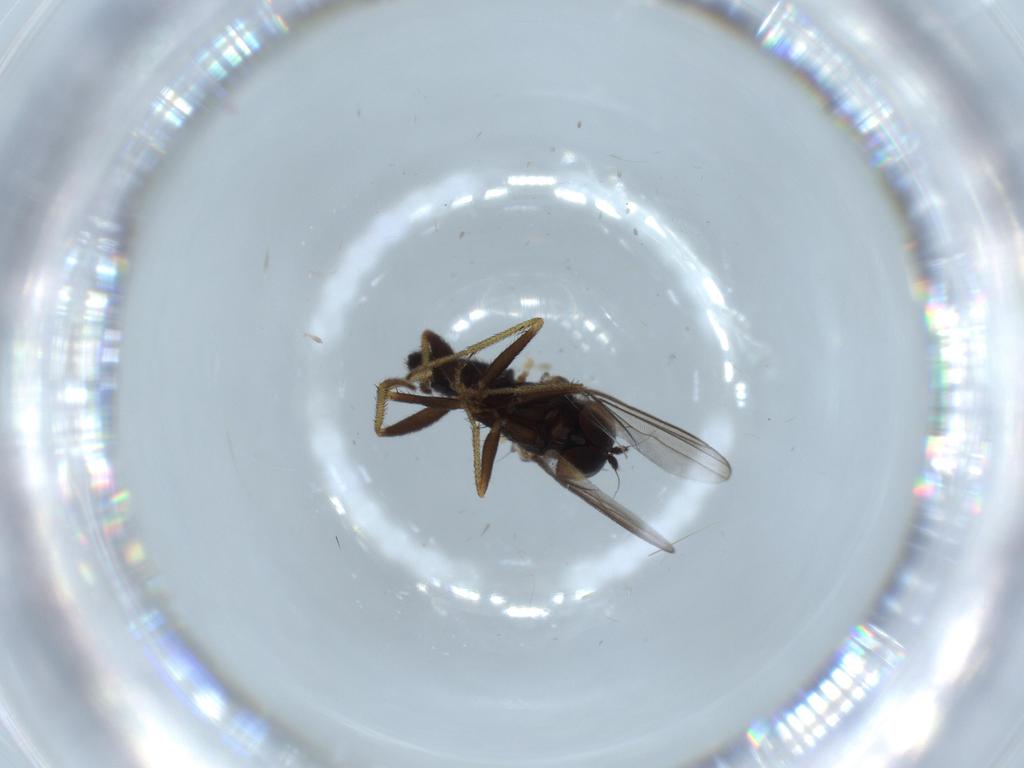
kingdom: Animalia
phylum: Arthropoda
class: Insecta
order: Diptera
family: Dolichopodidae
